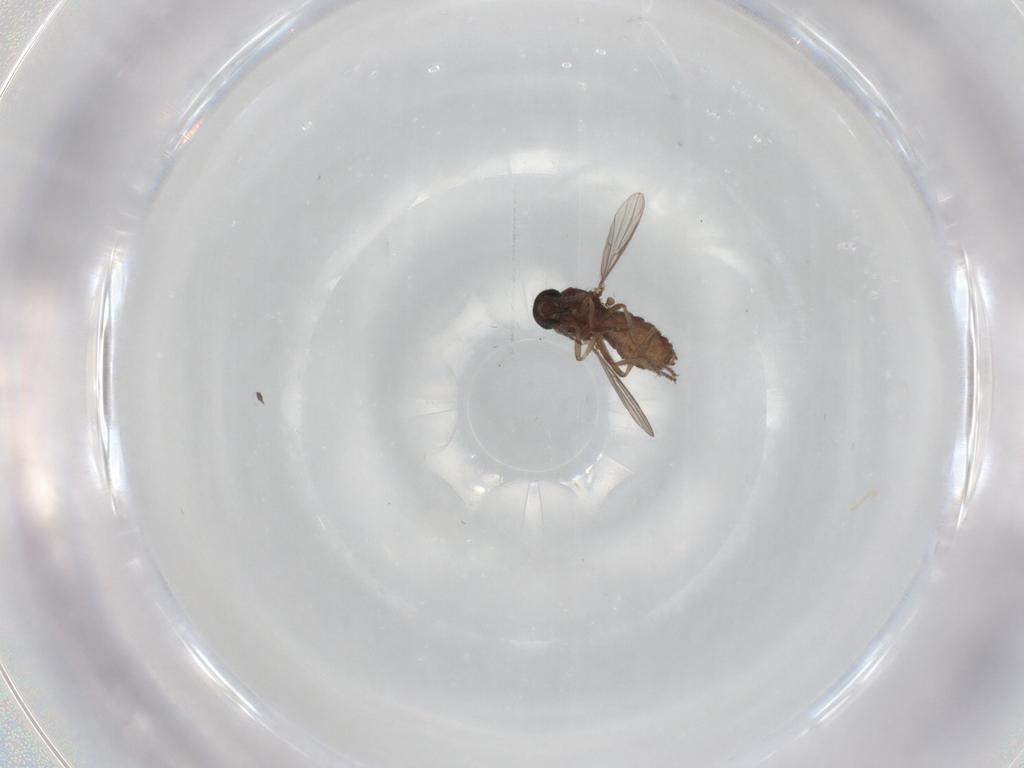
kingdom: Animalia
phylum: Arthropoda
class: Insecta
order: Diptera
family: Ceratopogonidae
